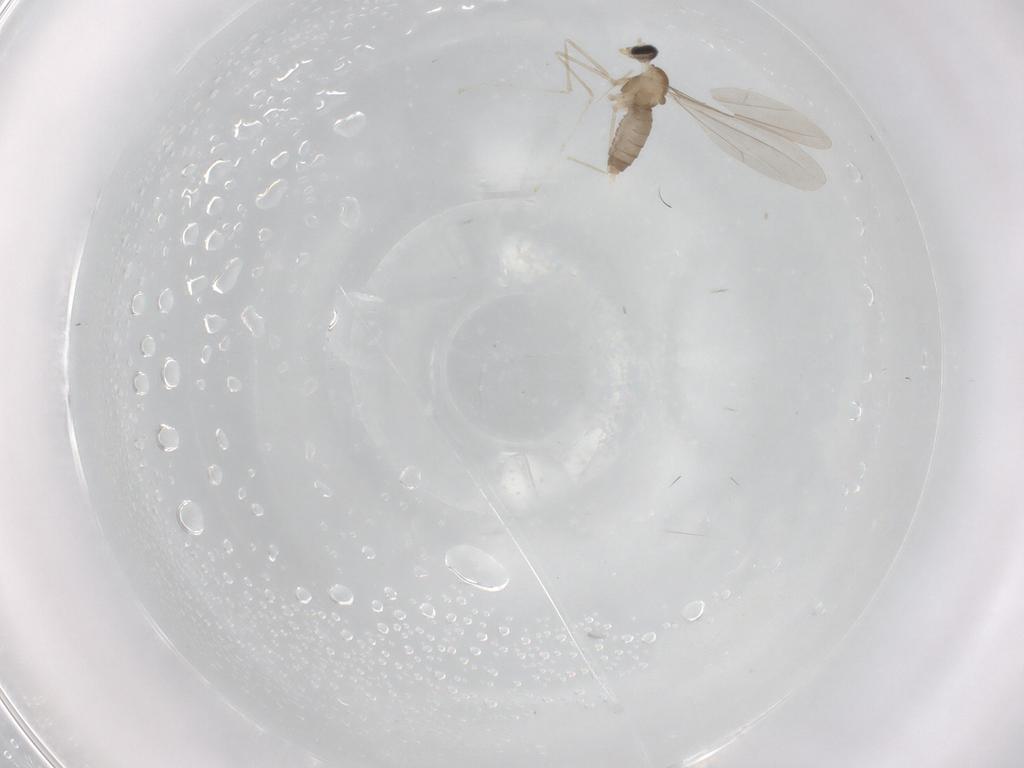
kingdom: Animalia
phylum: Arthropoda
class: Insecta
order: Diptera
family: Cecidomyiidae
